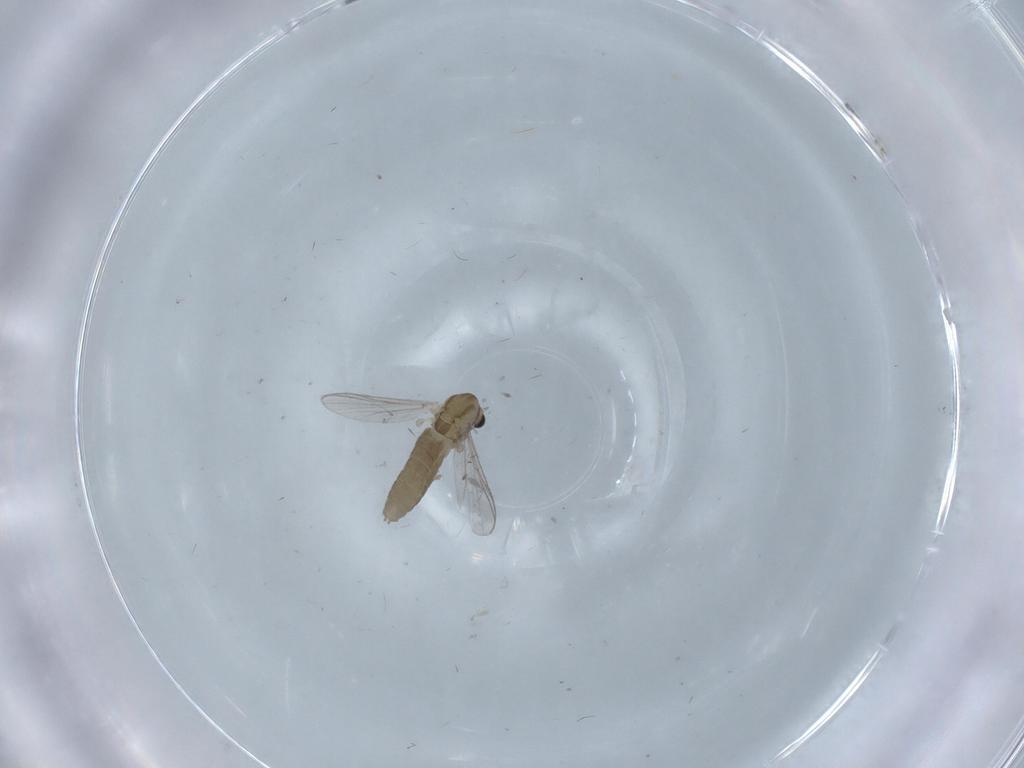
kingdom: Animalia
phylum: Arthropoda
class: Insecta
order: Diptera
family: Chironomidae
